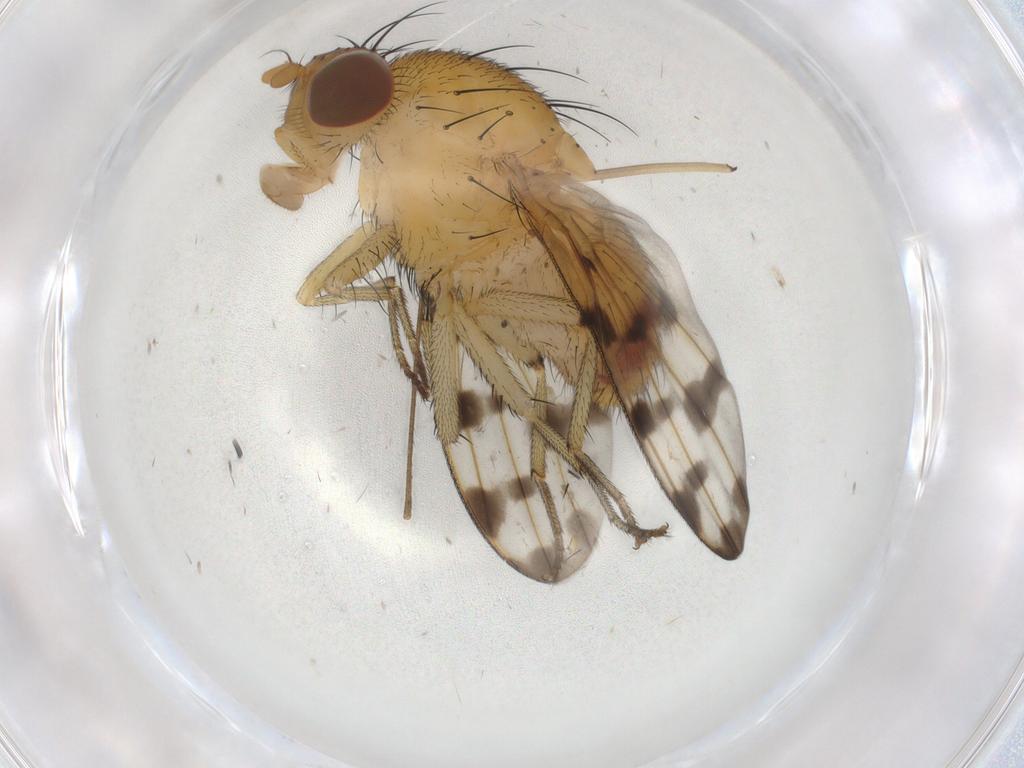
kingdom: Animalia
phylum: Arthropoda
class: Insecta
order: Diptera
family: Limoniidae
